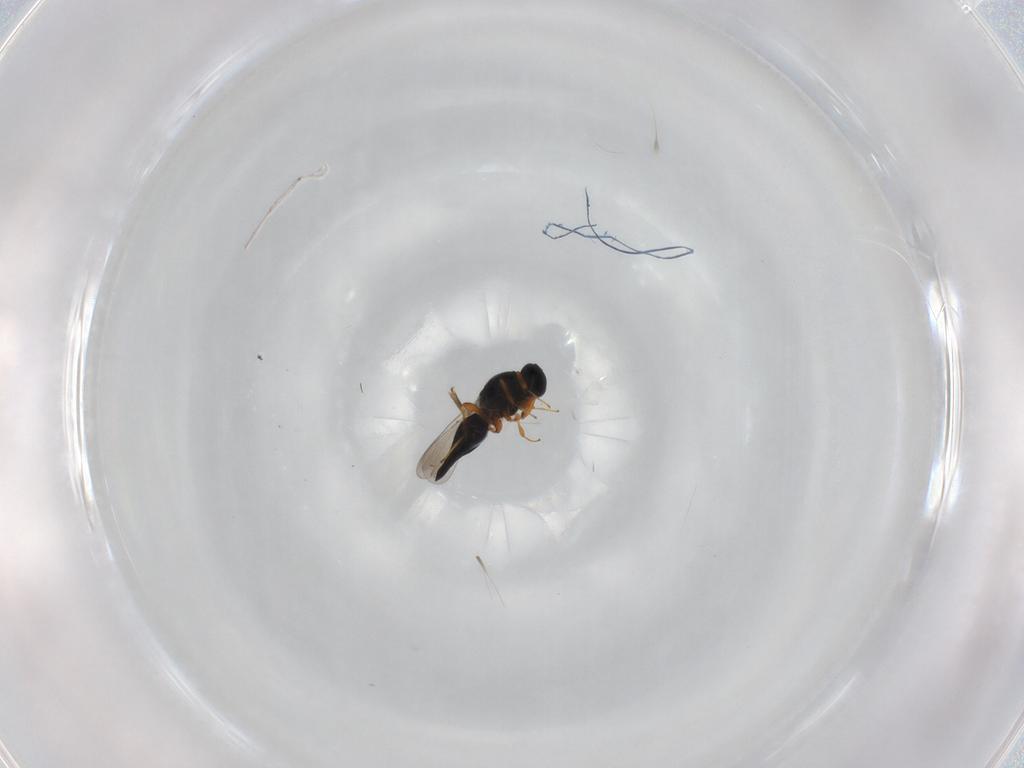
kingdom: Animalia
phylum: Arthropoda
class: Insecta
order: Hymenoptera
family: Platygastridae
